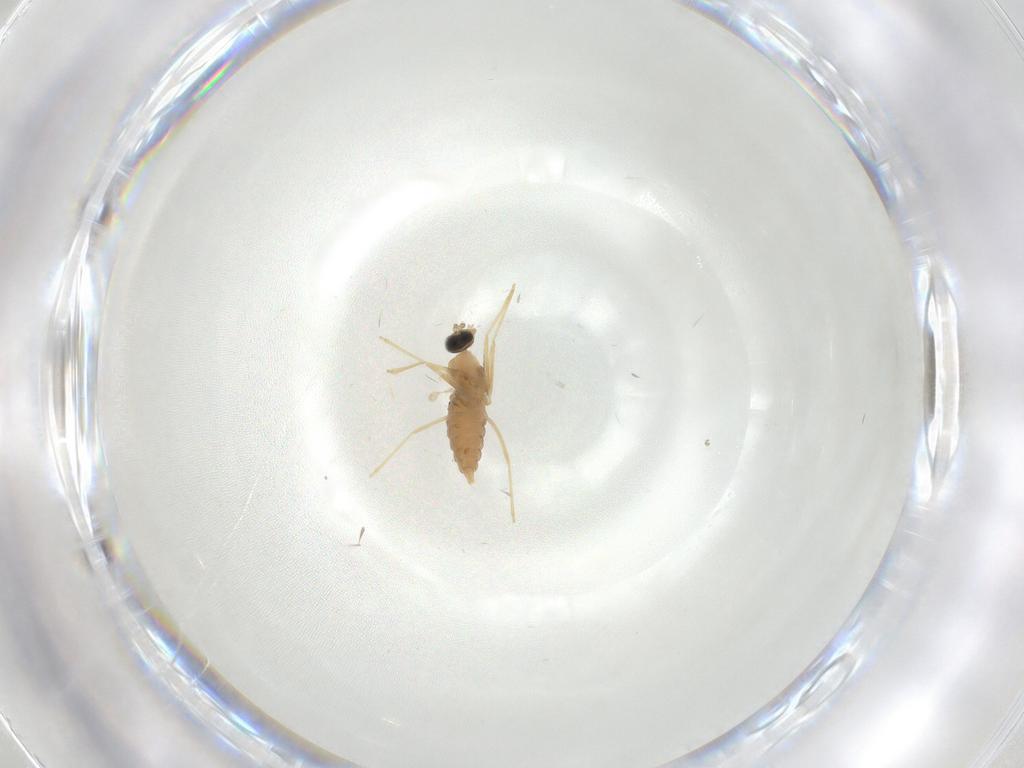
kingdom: Animalia
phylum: Arthropoda
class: Insecta
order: Diptera
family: Cecidomyiidae
